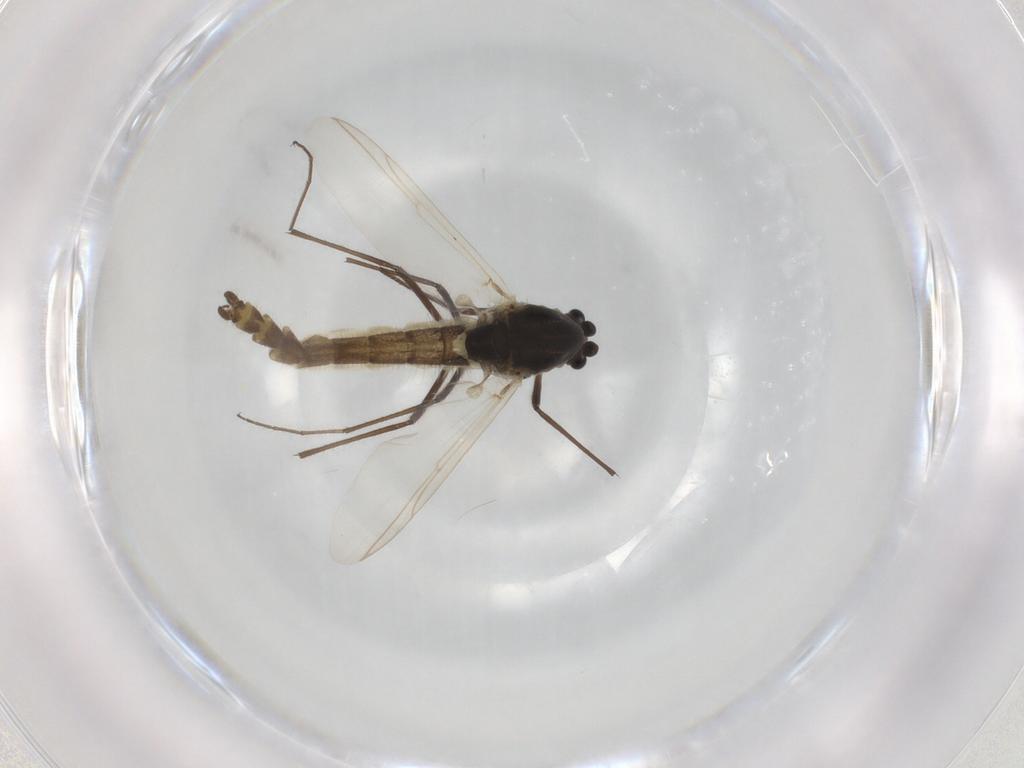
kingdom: Animalia
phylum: Arthropoda
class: Insecta
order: Diptera
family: Chironomidae
